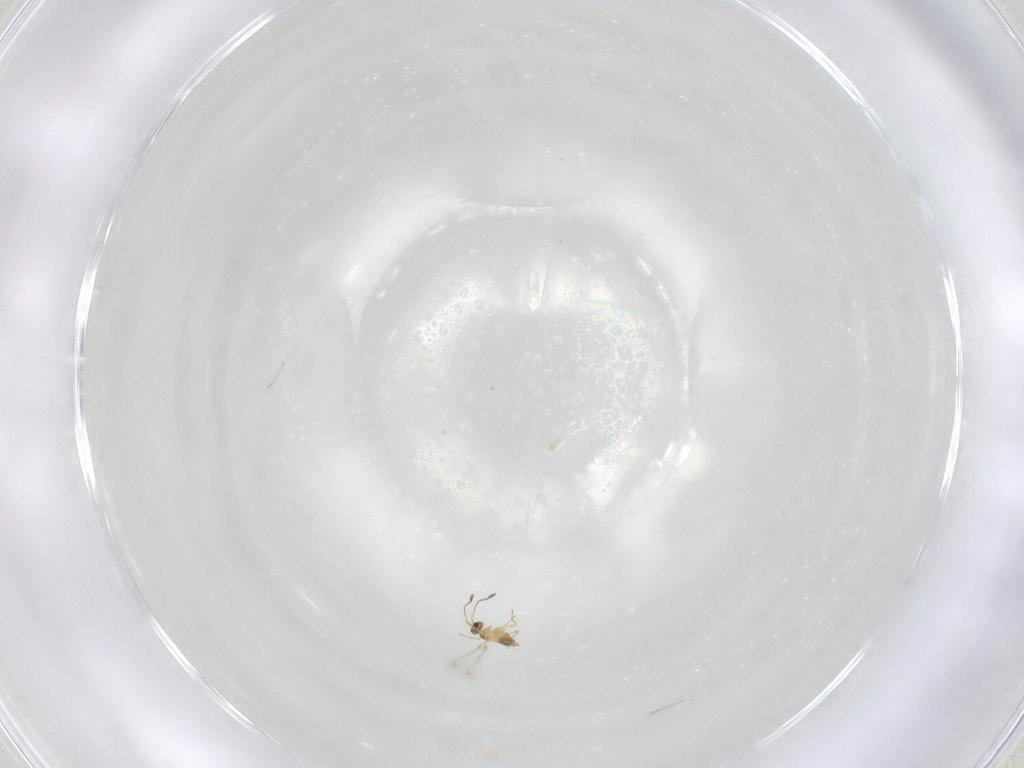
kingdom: Animalia
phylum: Arthropoda
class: Insecta
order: Hymenoptera
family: Mymaridae
